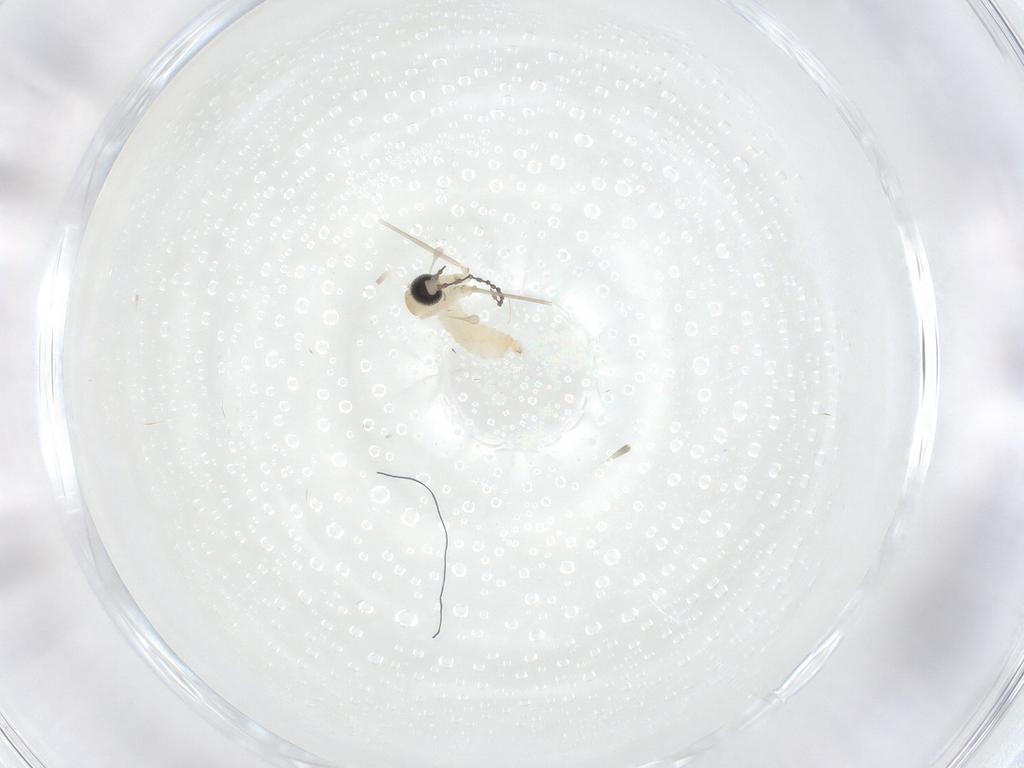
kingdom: Animalia
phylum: Arthropoda
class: Insecta
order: Diptera
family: Cecidomyiidae
